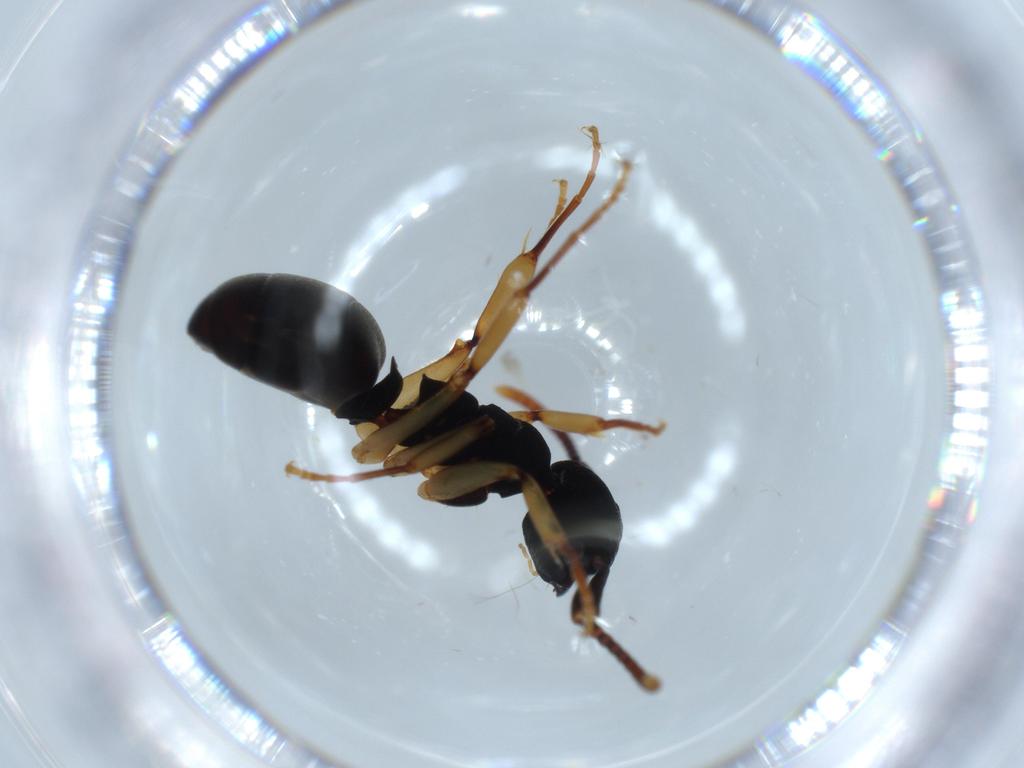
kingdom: Animalia
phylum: Arthropoda
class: Insecta
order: Hymenoptera
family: Formicidae
